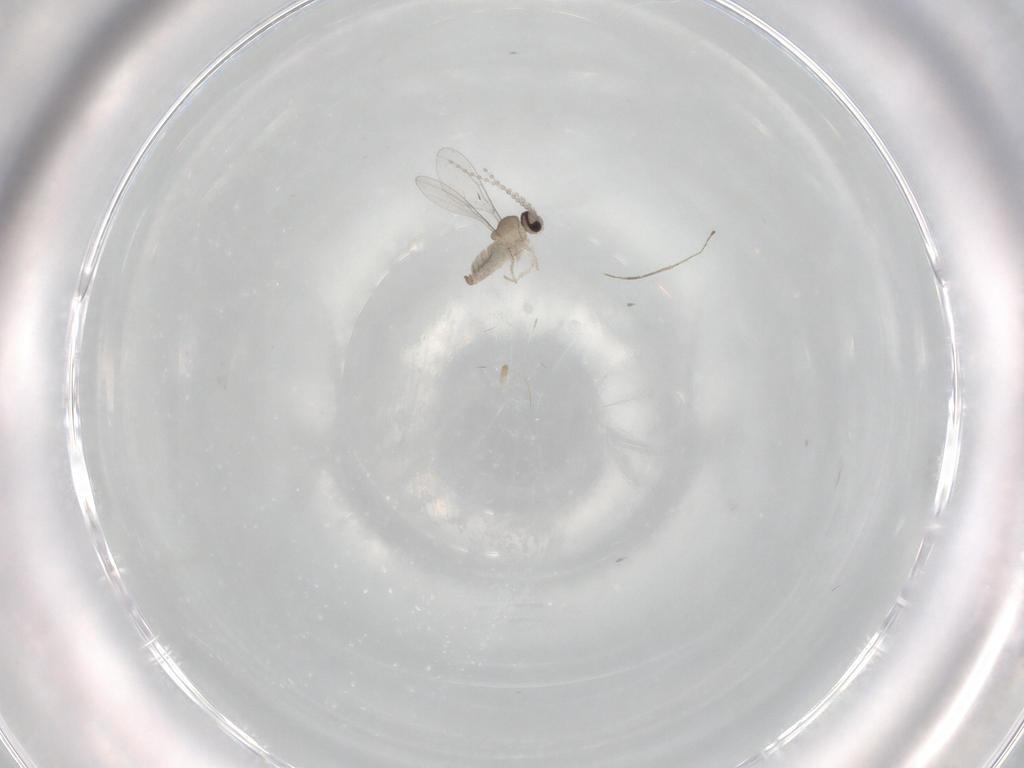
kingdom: Animalia
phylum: Arthropoda
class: Insecta
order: Diptera
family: Cecidomyiidae
